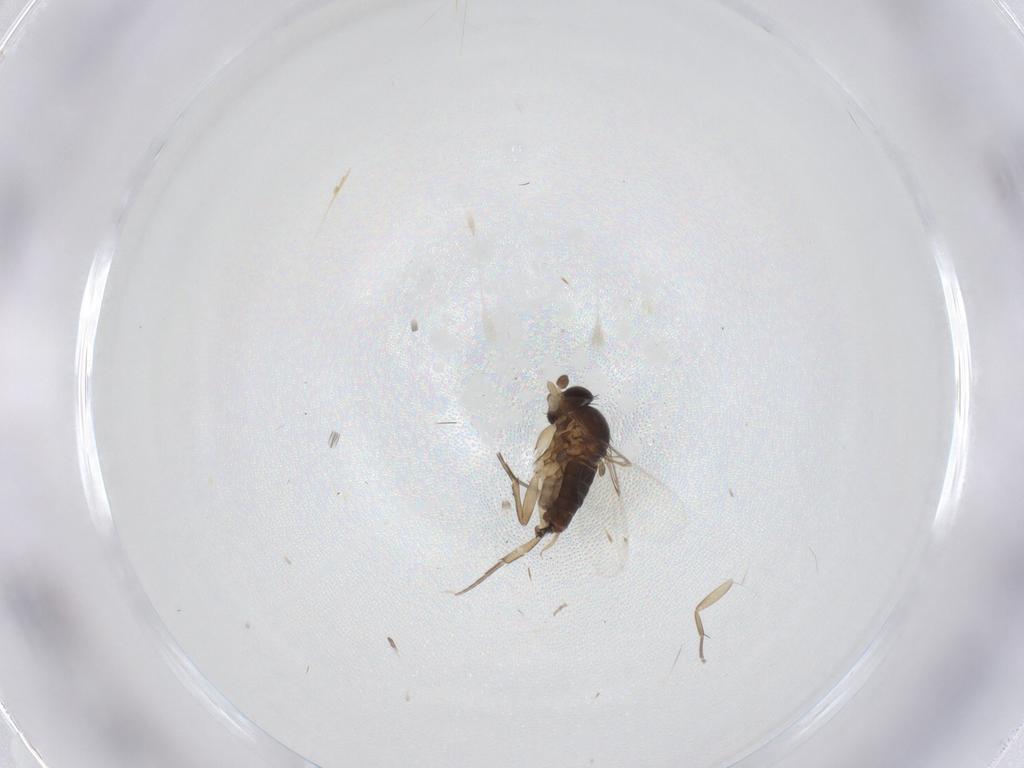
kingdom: Animalia
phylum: Arthropoda
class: Insecta
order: Diptera
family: Phoridae
